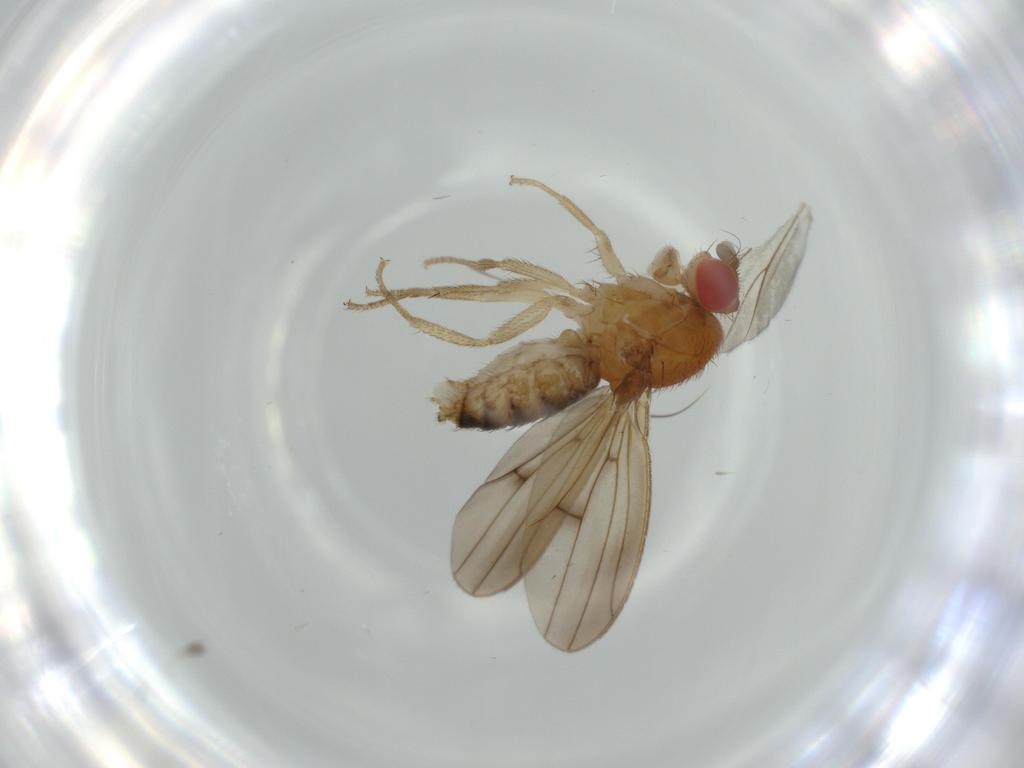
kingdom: Animalia
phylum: Arthropoda
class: Insecta
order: Diptera
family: Drosophilidae
